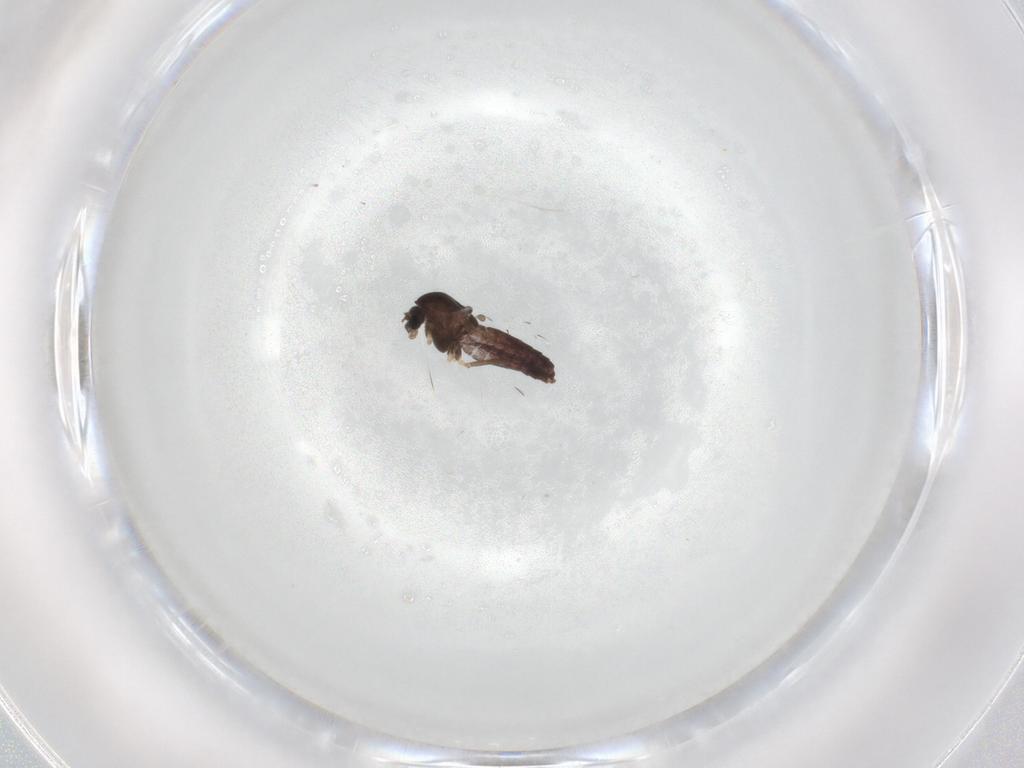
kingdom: Animalia
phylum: Arthropoda
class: Insecta
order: Diptera
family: Chironomidae
